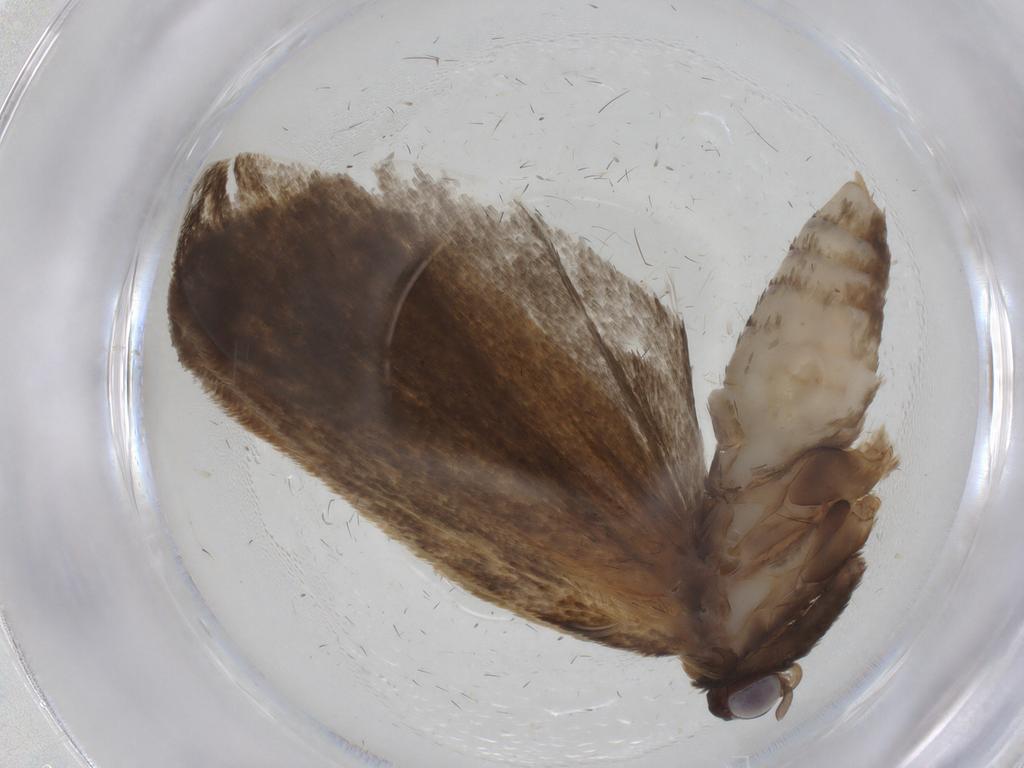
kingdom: Animalia
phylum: Arthropoda
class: Insecta
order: Lepidoptera
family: Tortricidae
